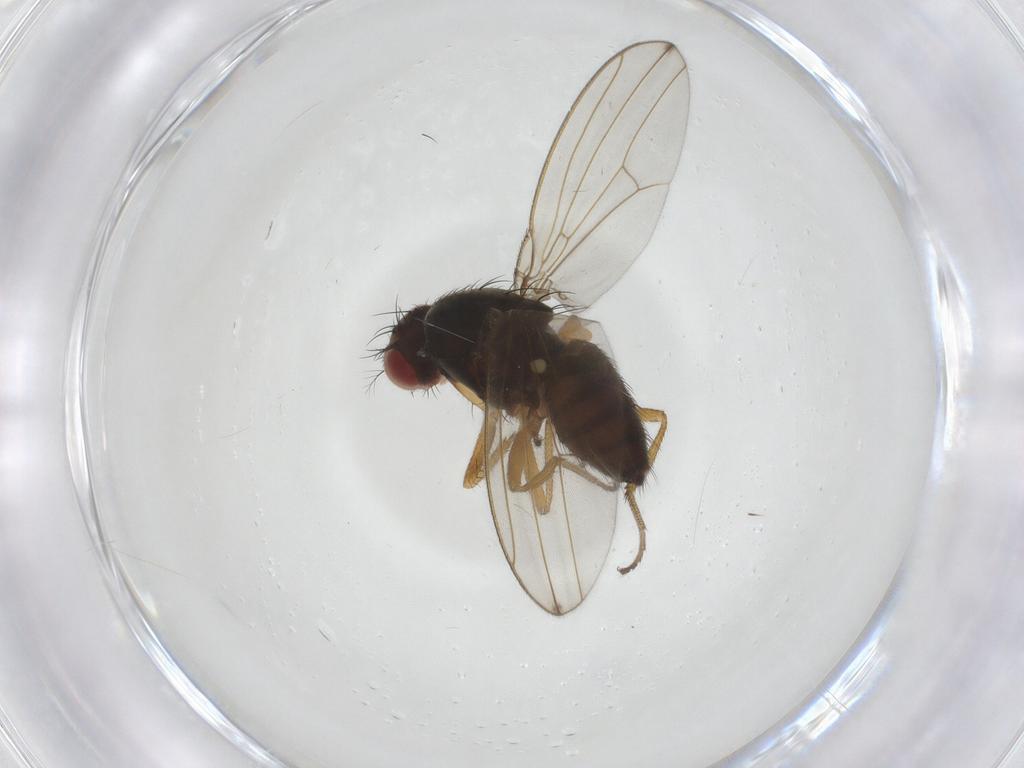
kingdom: Animalia
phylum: Arthropoda
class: Insecta
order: Diptera
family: Drosophilidae
